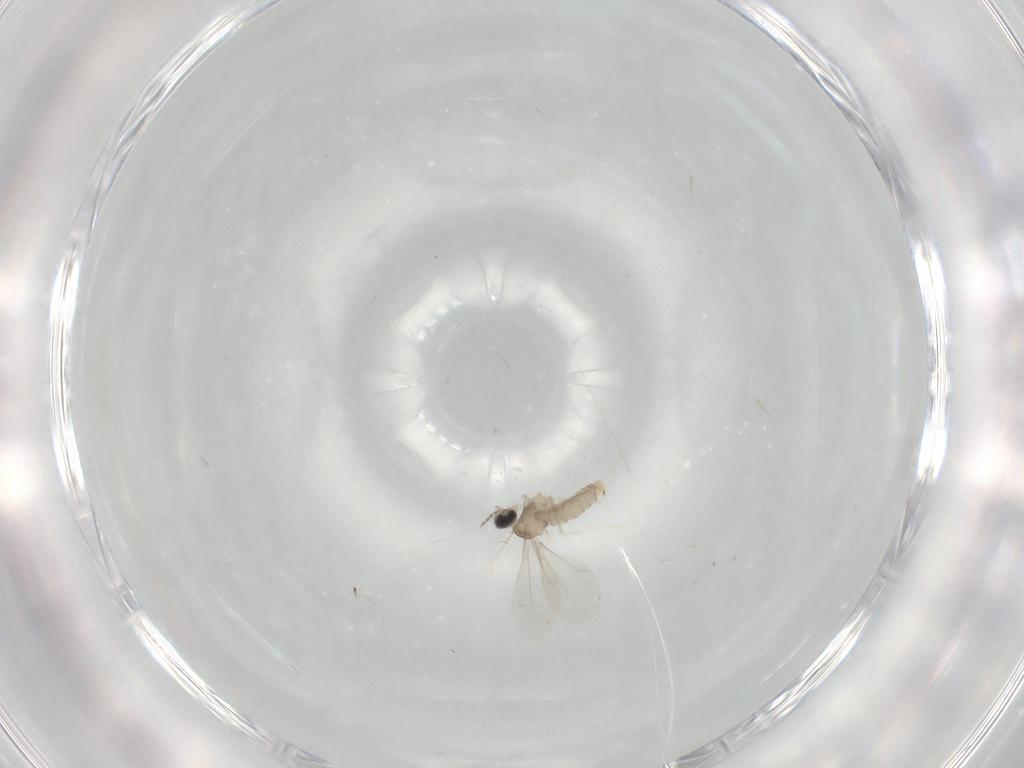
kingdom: Animalia
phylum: Arthropoda
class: Insecta
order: Diptera
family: Cecidomyiidae
